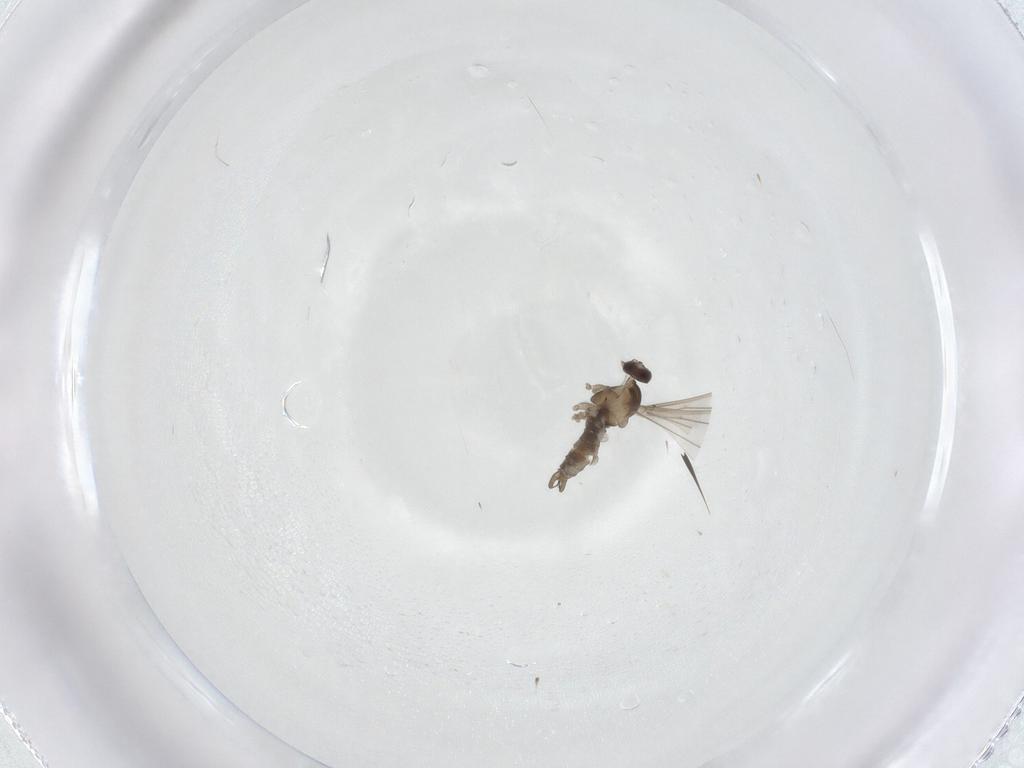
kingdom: Animalia
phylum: Arthropoda
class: Insecta
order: Diptera
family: Cecidomyiidae
